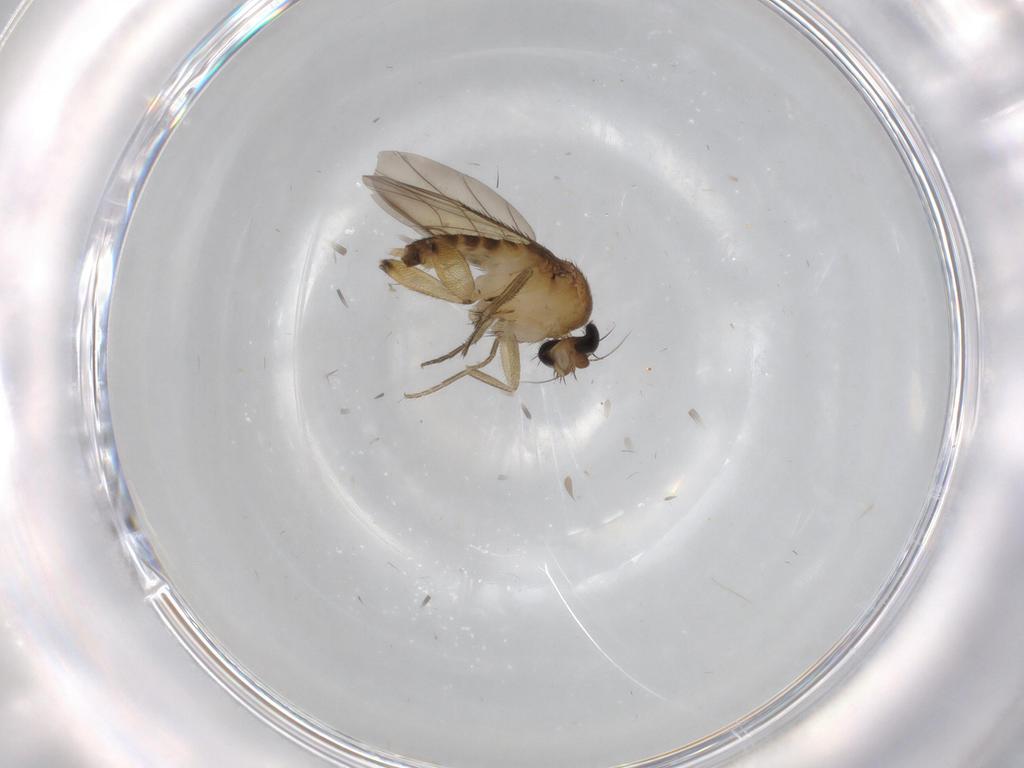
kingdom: Animalia
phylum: Arthropoda
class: Insecta
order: Diptera
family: Phoridae
